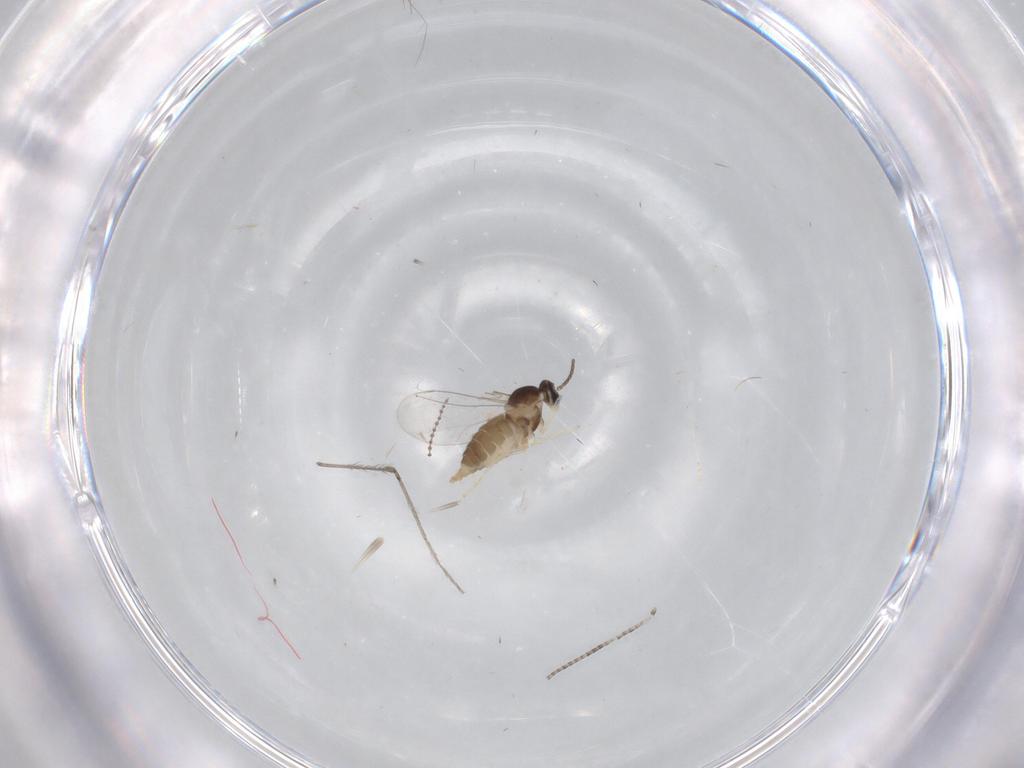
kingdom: Animalia
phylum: Arthropoda
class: Insecta
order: Diptera
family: Cecidomyiidae
